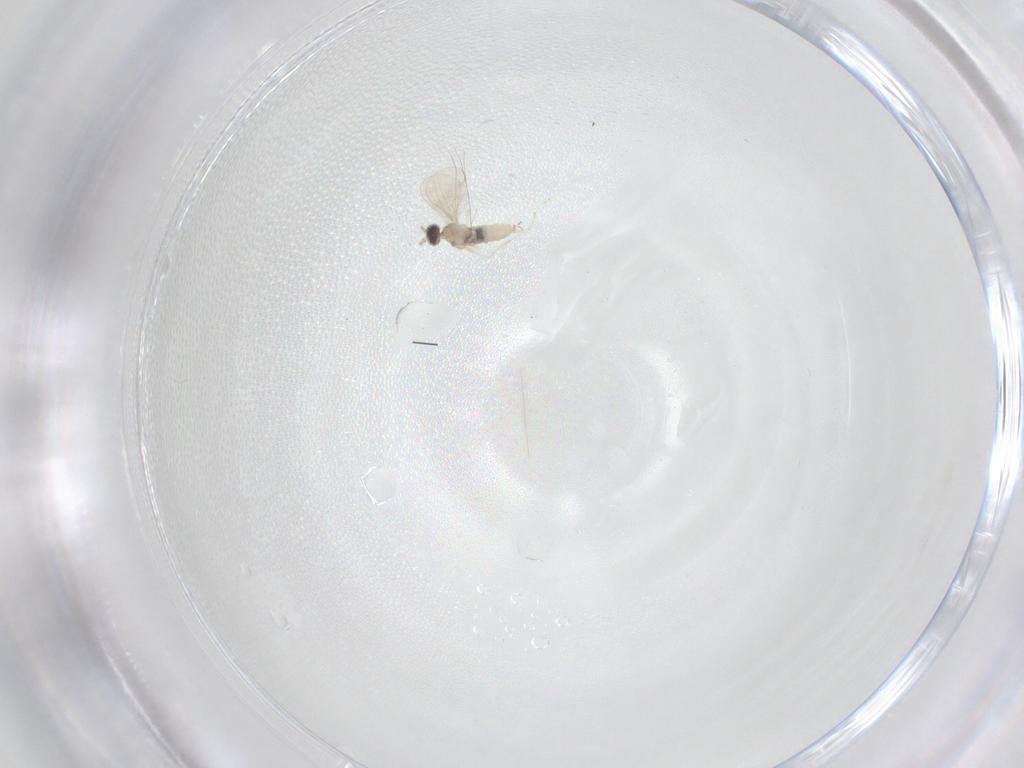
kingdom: Animalia
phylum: Arthropoda
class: Insecta
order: Diptera
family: Cecidomyiidae
